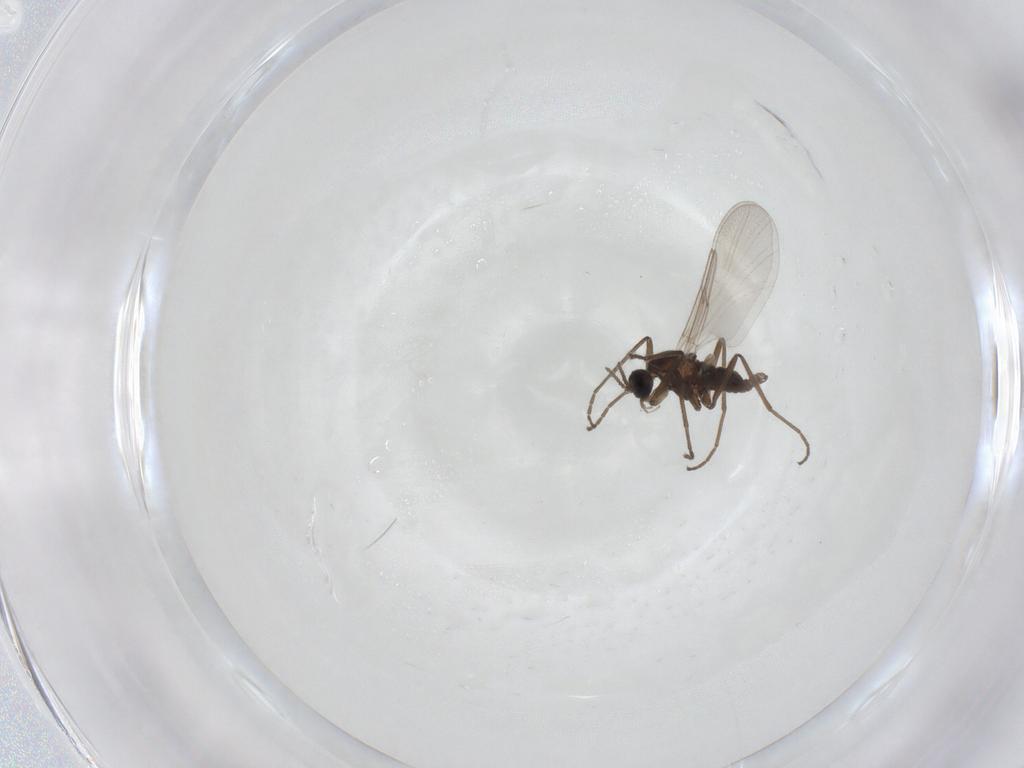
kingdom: Animalia
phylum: Arthropoda
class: Insecta
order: Diptera
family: Cecidomyiidae
